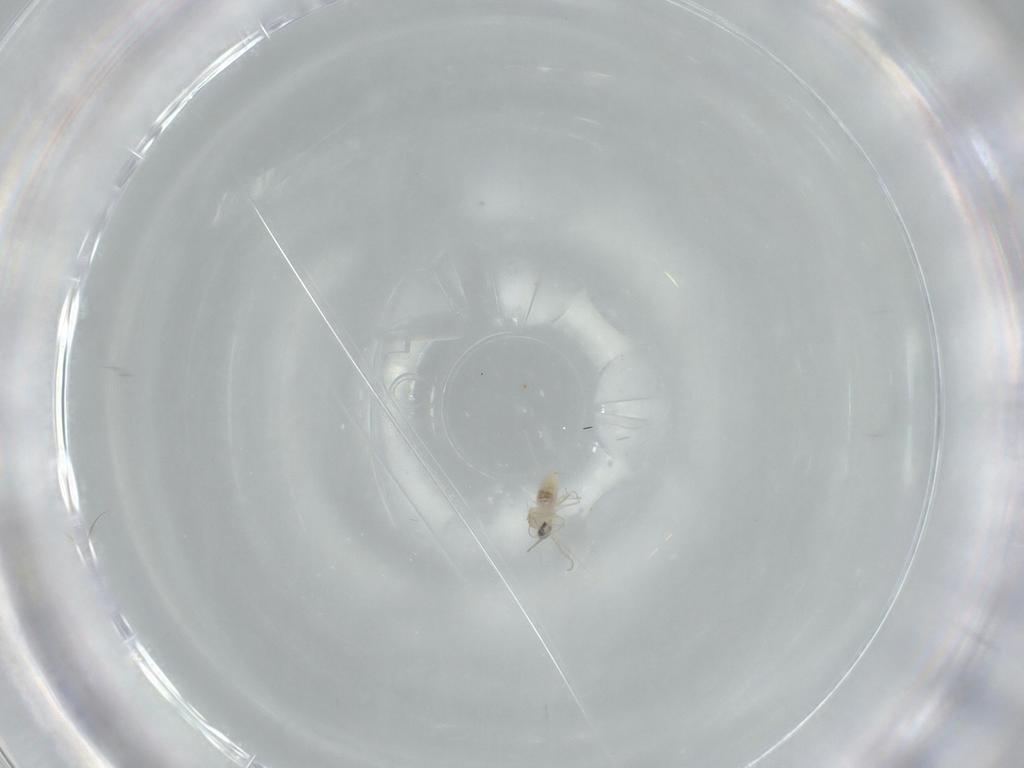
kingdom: Animalia
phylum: Arthropoda
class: Insecta
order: Diptera
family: Cecidomyiidae
